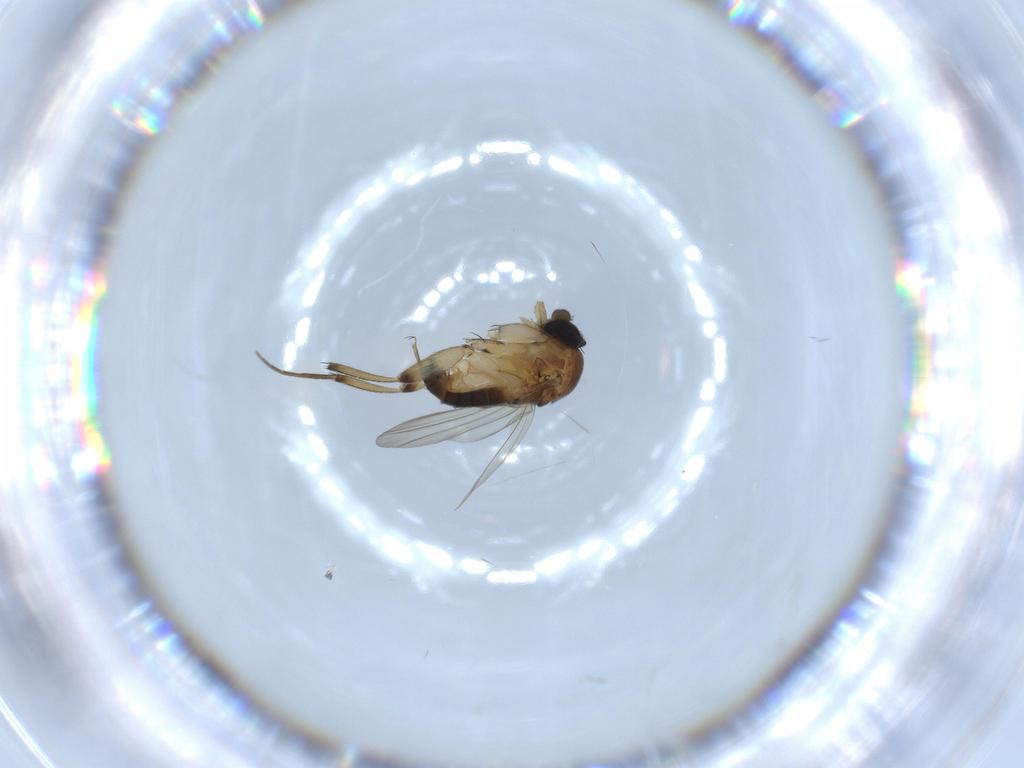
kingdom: Animalia
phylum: Arthropoda
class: Insecta
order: Diptera
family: Phoridae
